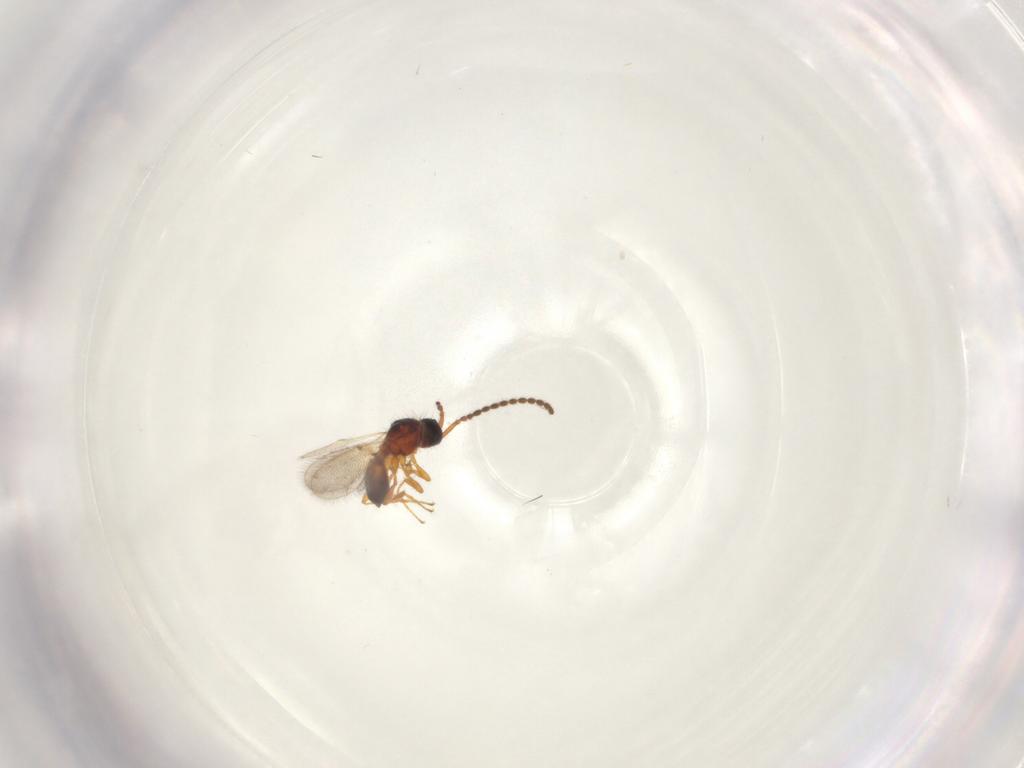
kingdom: Animalia
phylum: Arthropoda
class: Insecta
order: Hymenoptera
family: Diapriidae
